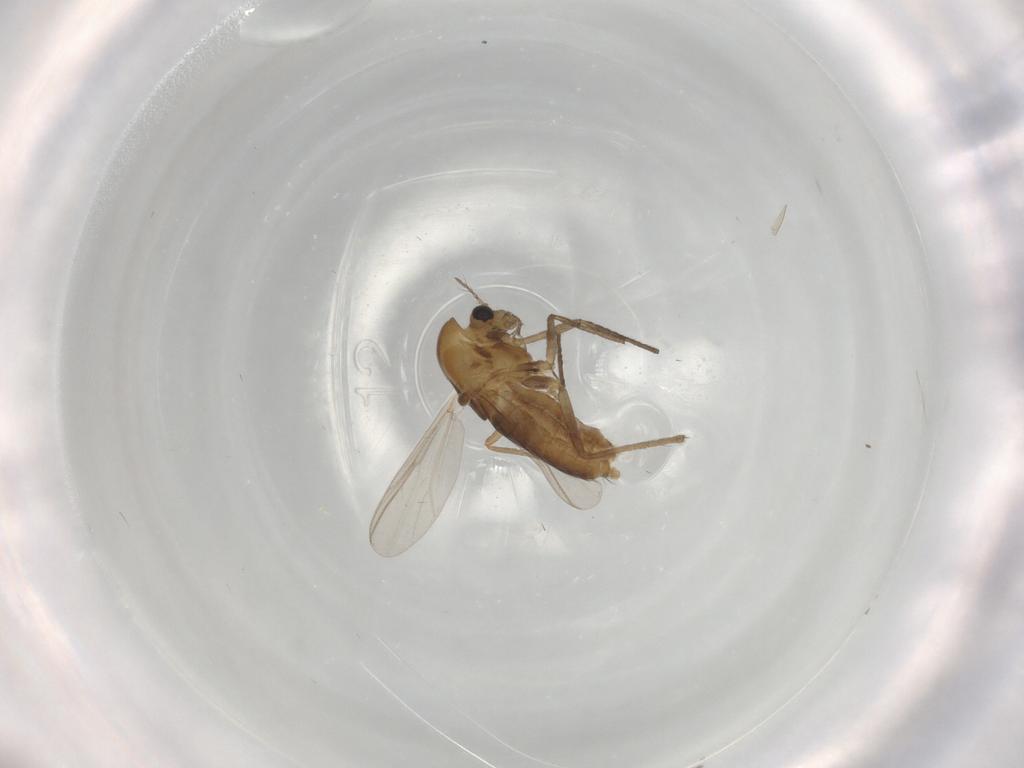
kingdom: Animalia
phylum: Arthropoda
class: Insecta
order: Diptera
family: Chironomidae
